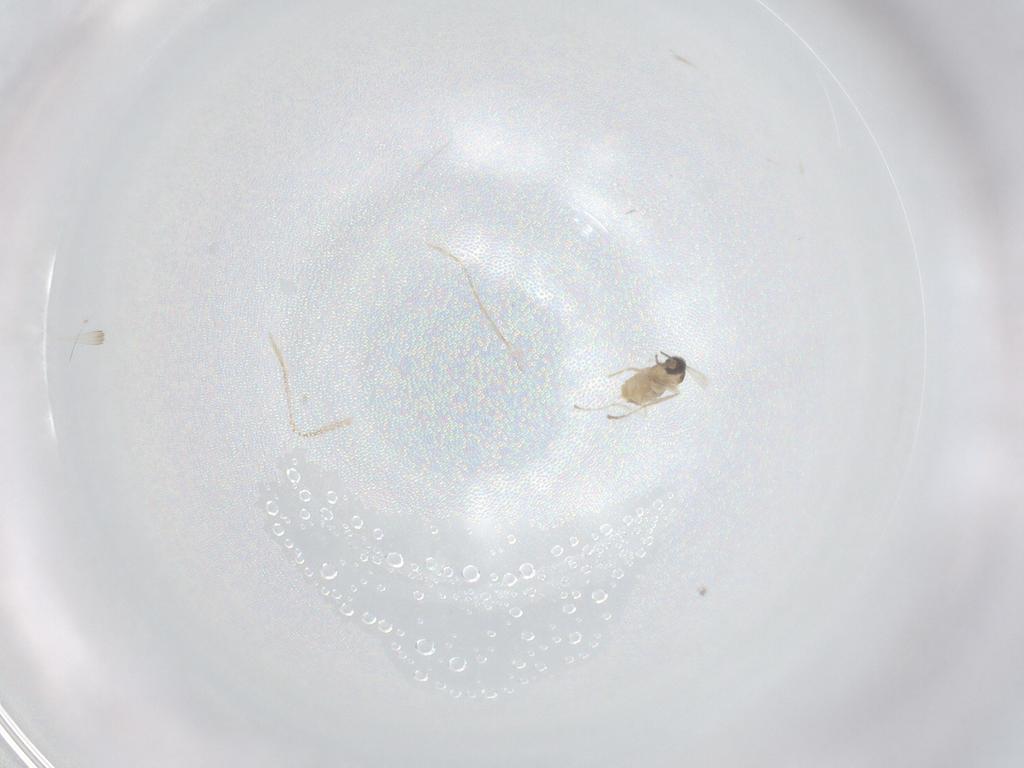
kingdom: Animalia
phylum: Arthropoda
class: Insecta
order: Diptera
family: Cecidomyiidae
